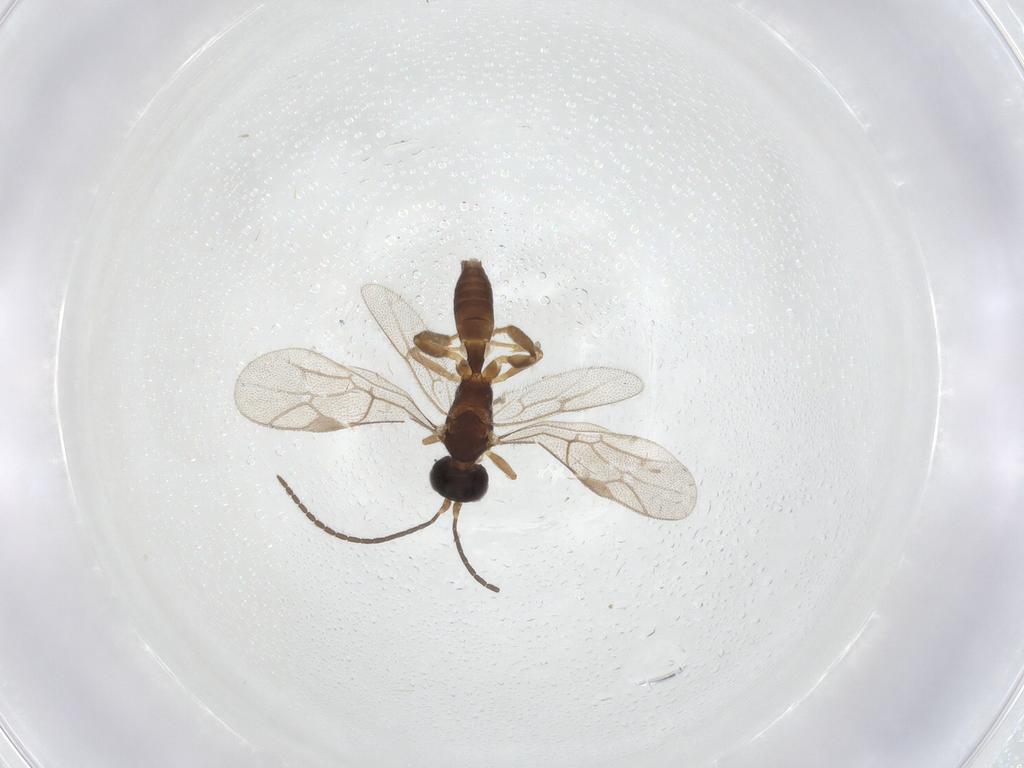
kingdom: Animalia
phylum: Arthropoda
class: Insecta
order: Hymenoptera
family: Ichneumonidae
